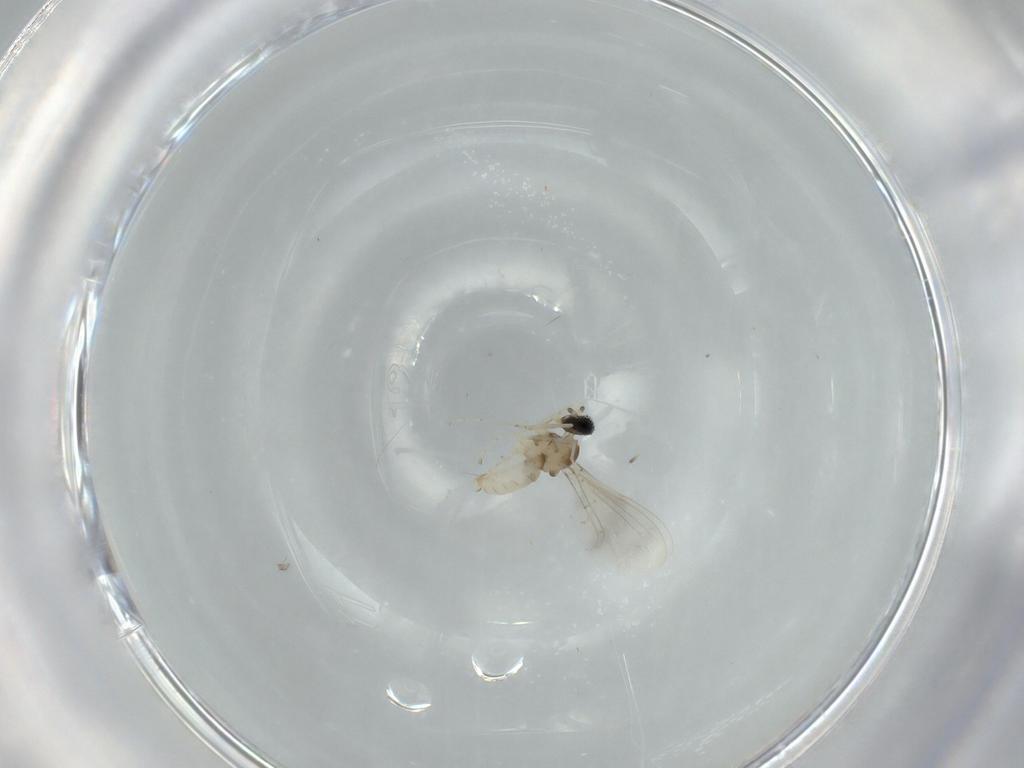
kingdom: Animalia
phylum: Arthropoda
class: Insecta
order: Diptera
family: Cecidomyiidae
